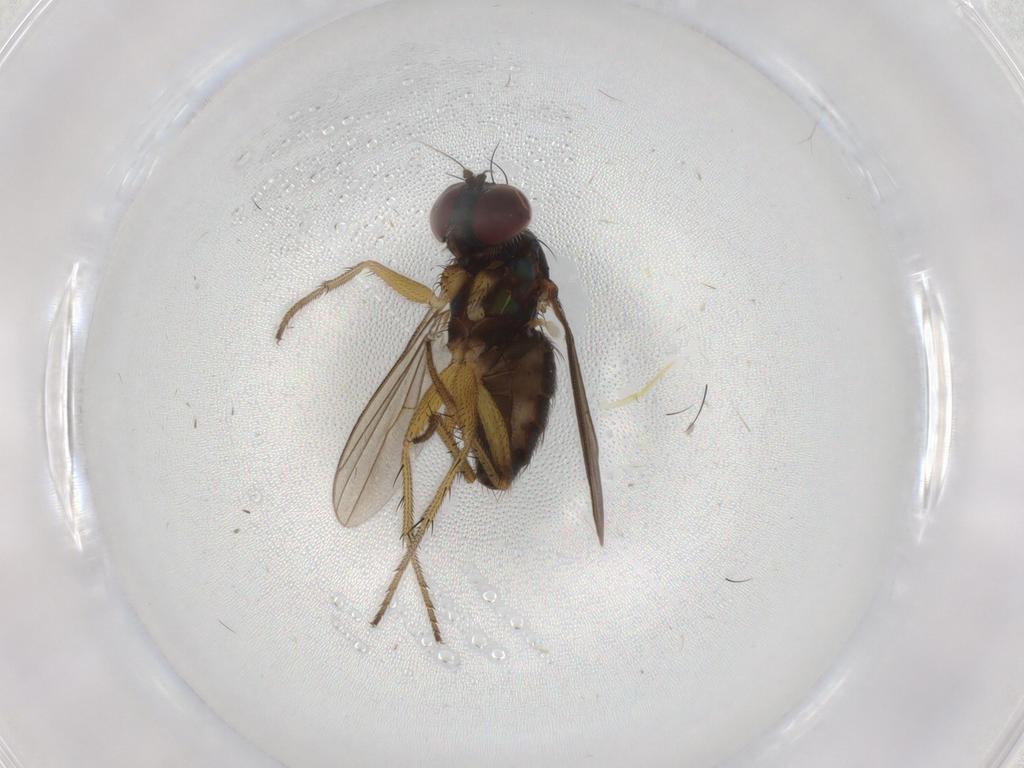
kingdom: Animalia
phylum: Arthropoda
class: Insecta
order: Diptera
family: Dolichopodidae
